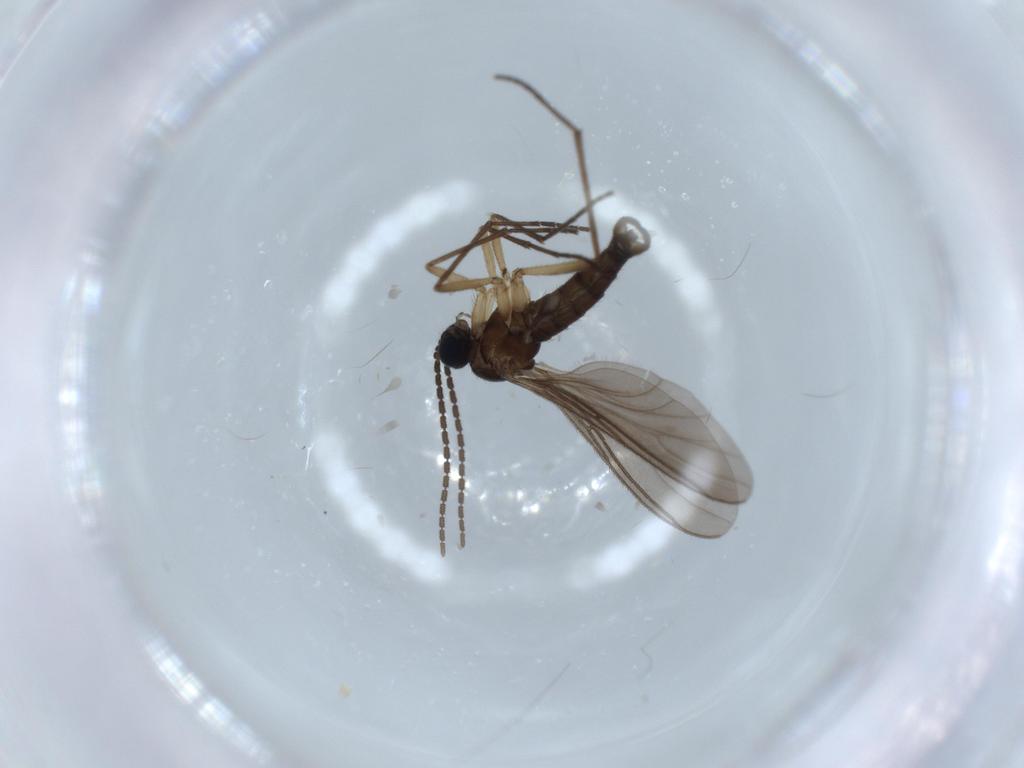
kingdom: Animalia
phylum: Arthropoda
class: Insecta
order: Diptera
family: Sciaridae
